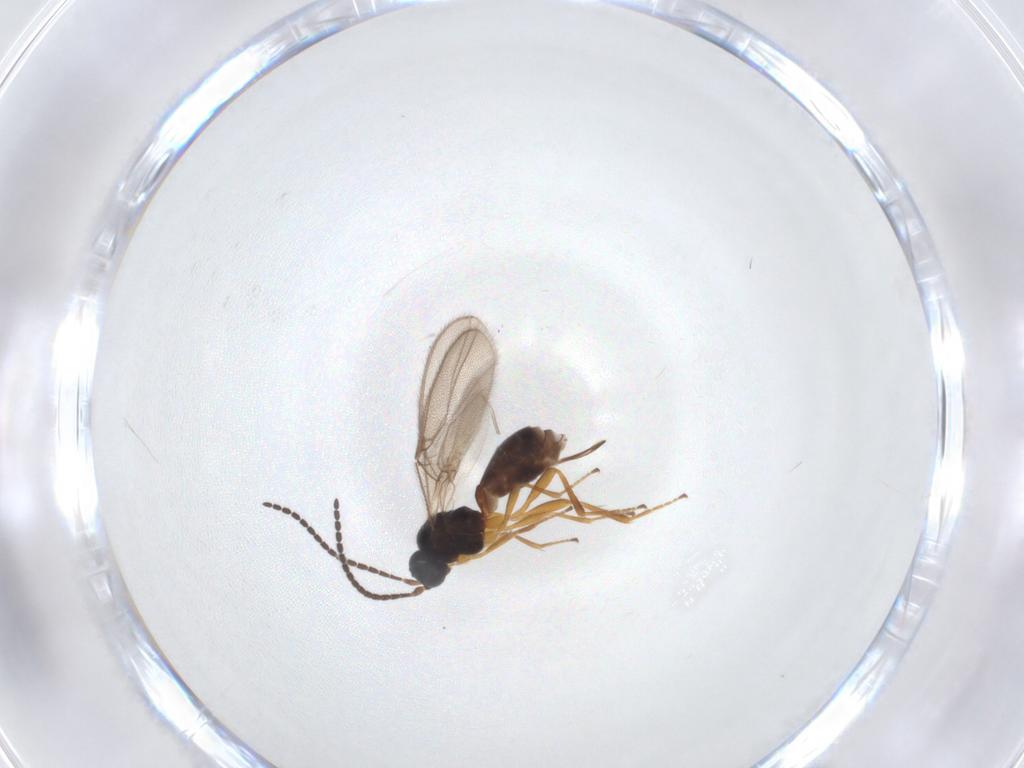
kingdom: Animalia
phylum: Arthropoda
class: Insecta
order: Hymenoptera
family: Braconidae
